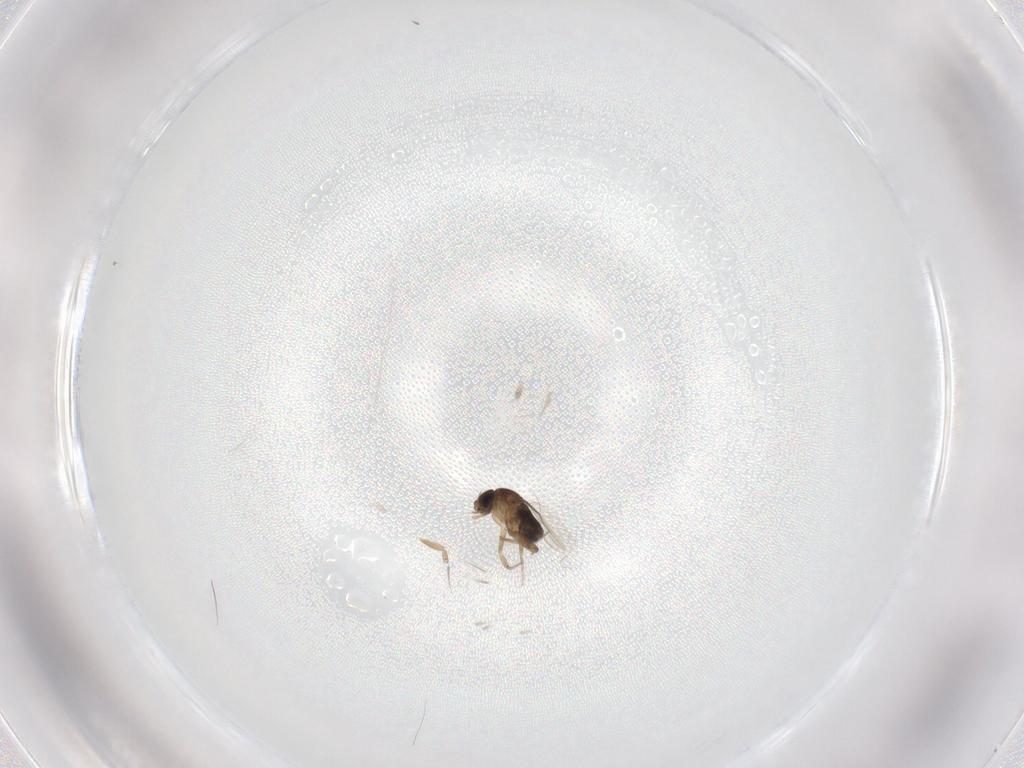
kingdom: Animalia
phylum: Arthropoda
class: Insecta
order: Diptera
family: Phoridae
